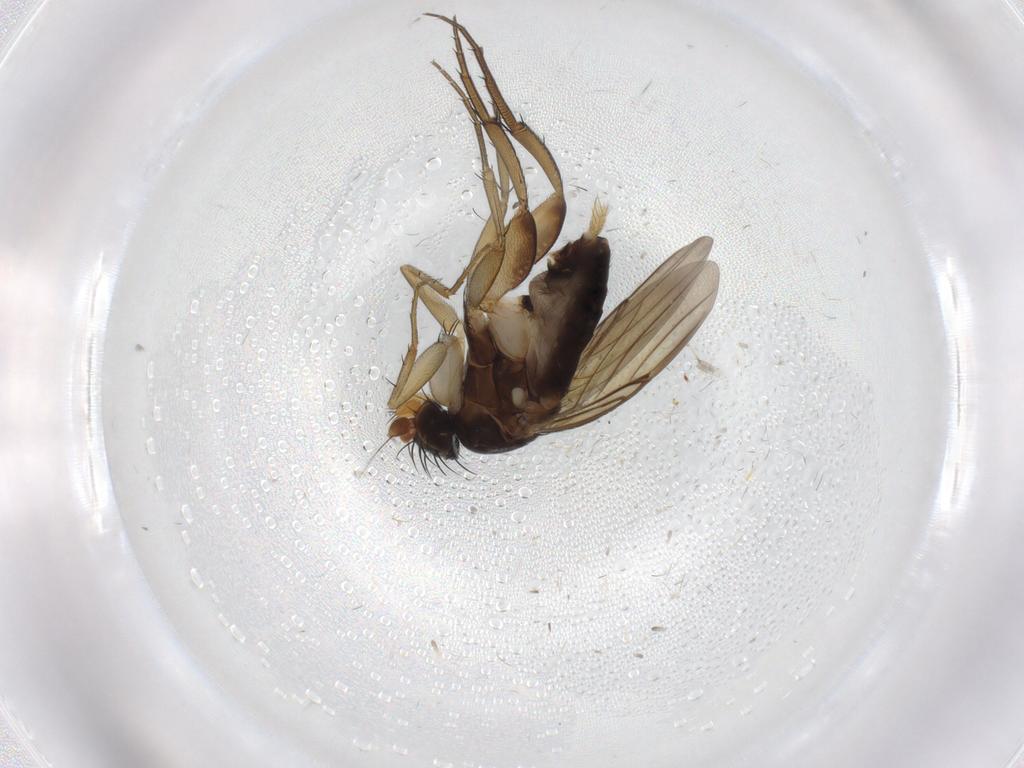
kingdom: Animalia
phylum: Arthropoda
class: Insecta
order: Diptera
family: Phoridae
